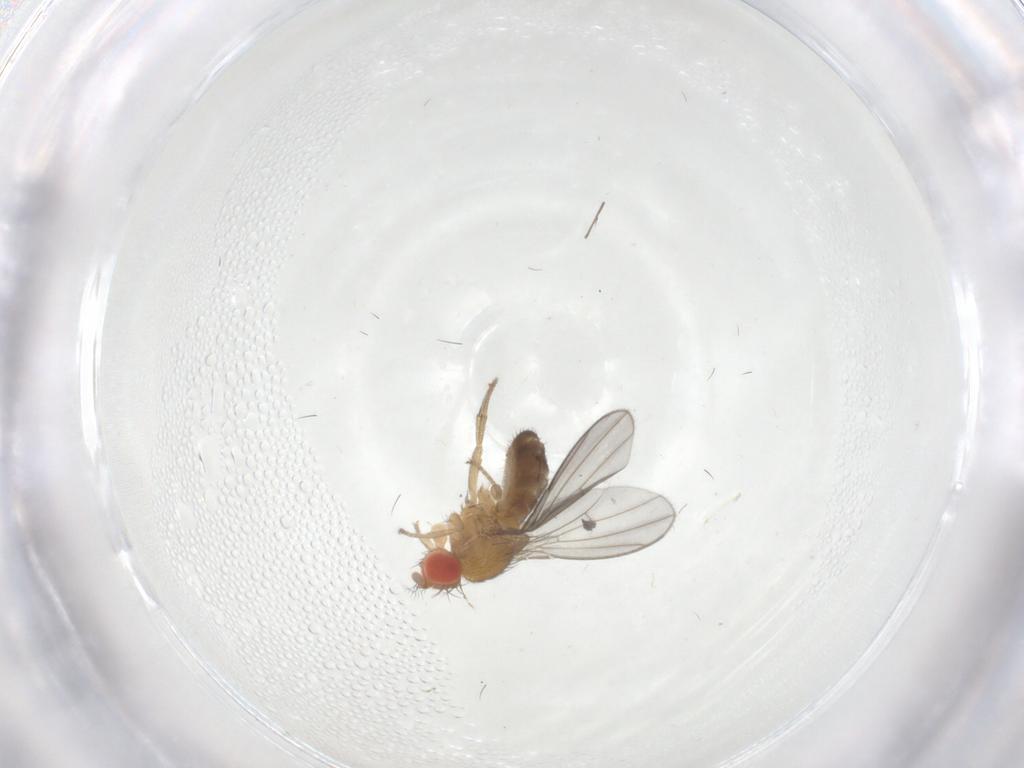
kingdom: Animalia
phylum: Arthropoda
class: Insecta
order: Diptera
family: Drosophilidae
